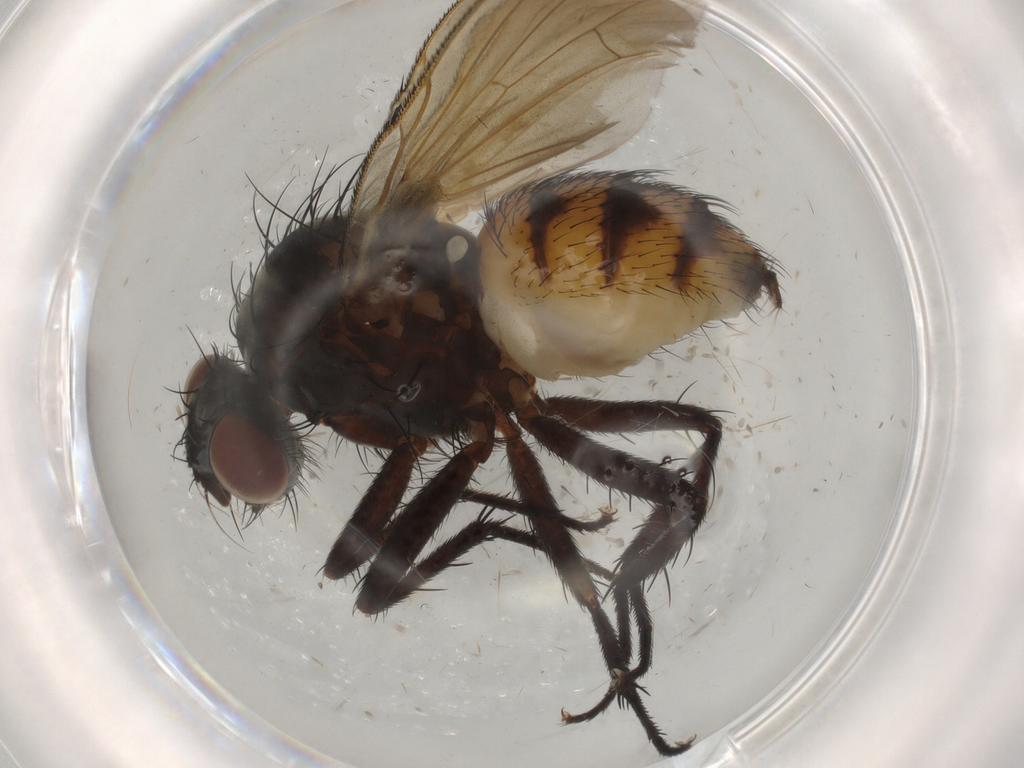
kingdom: Animalia
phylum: Arthropoda
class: Insecta
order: Diptera
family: Anthomyiidae
